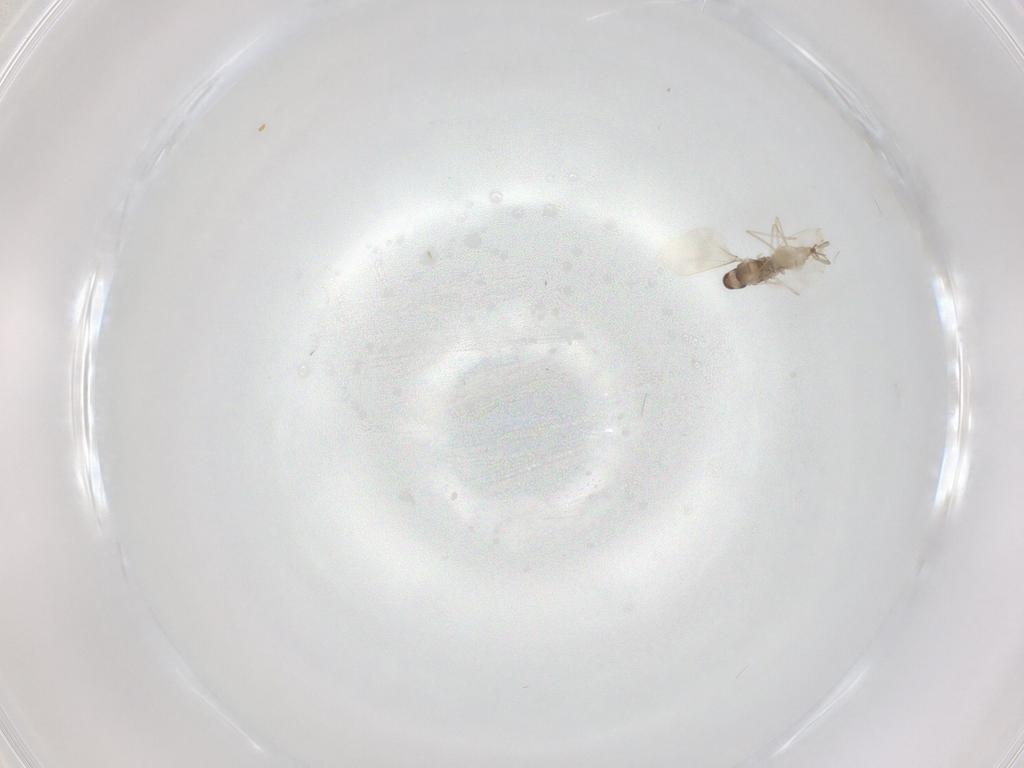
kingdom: Animalia
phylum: Arthropoda
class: Insecta
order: Diptera
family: Cecidomyiidae
